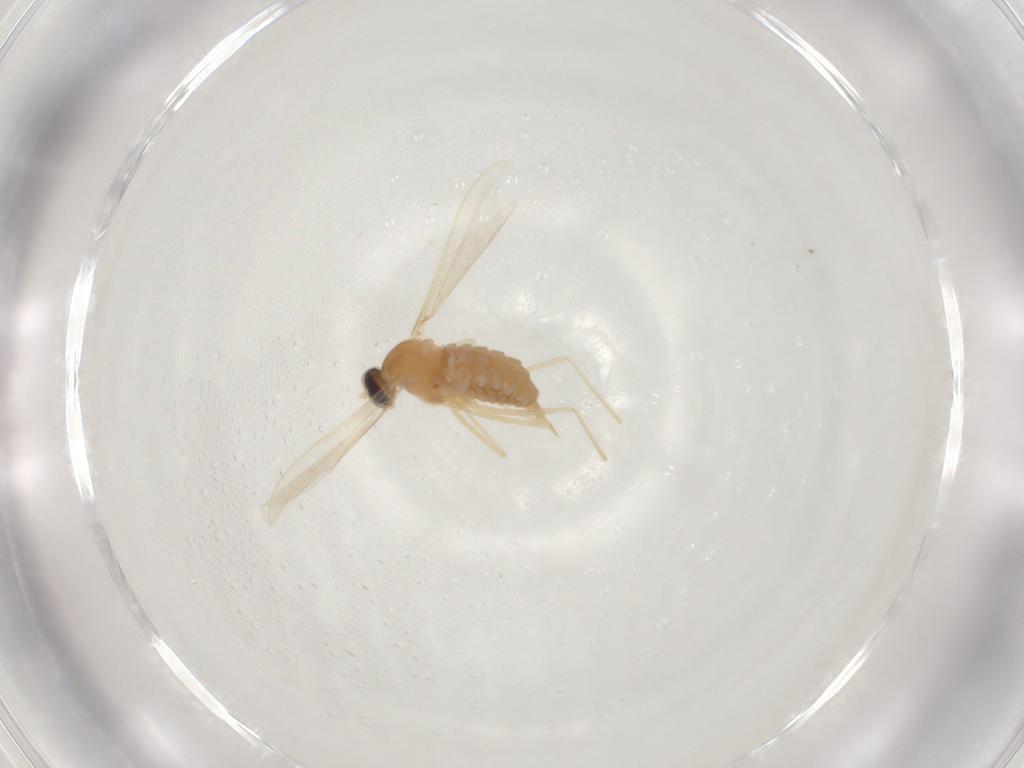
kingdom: Animalia
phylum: Arthropoda
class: Insecta
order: Diptera
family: Cecidomyiidae
